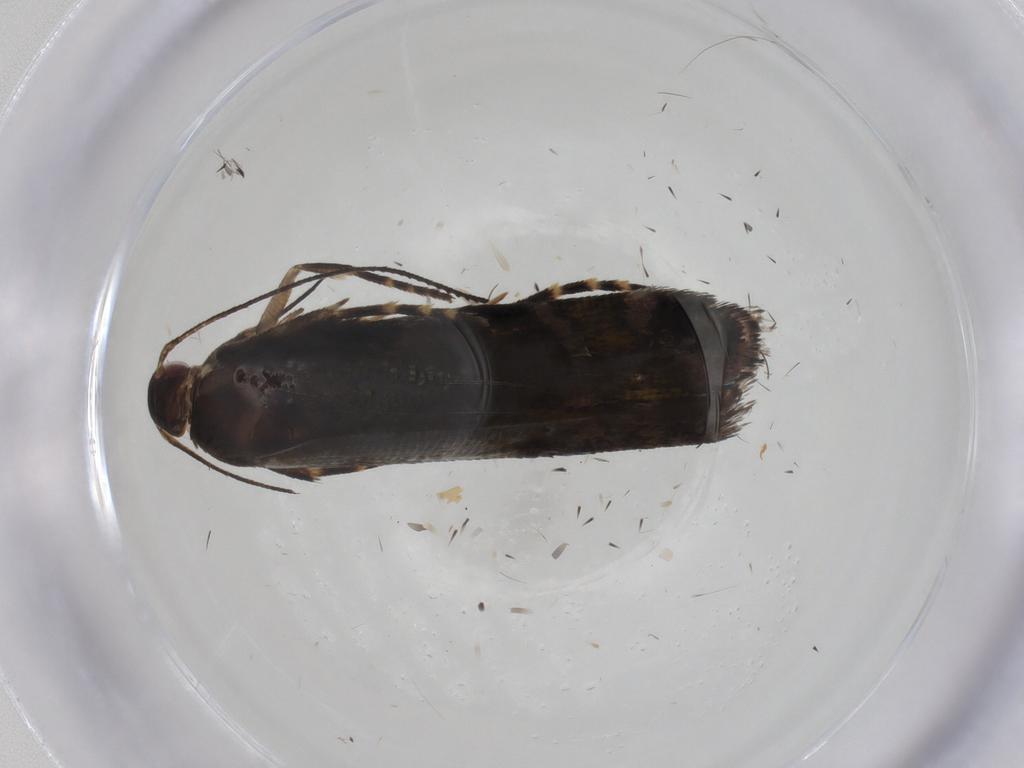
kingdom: Animalia
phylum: Arthropoda
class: Insecta
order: Lepidoptera
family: Gelechiidae
